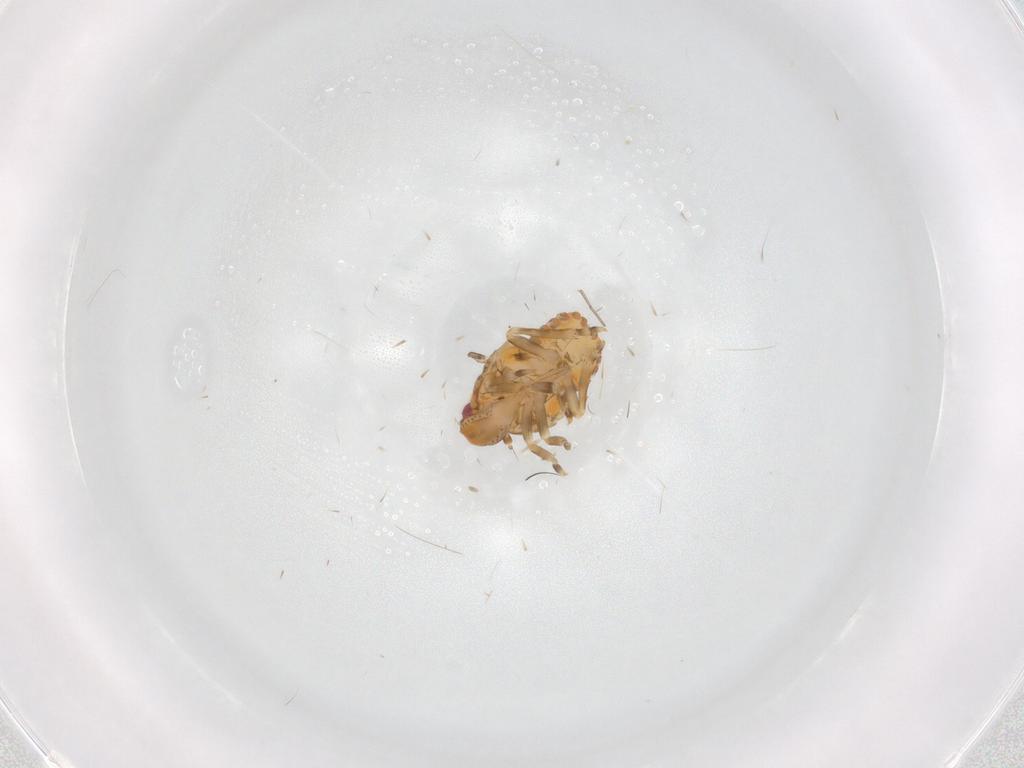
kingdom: Animalia
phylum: Arthropoda
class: Insecta
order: Hemiptera
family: Flatidae
